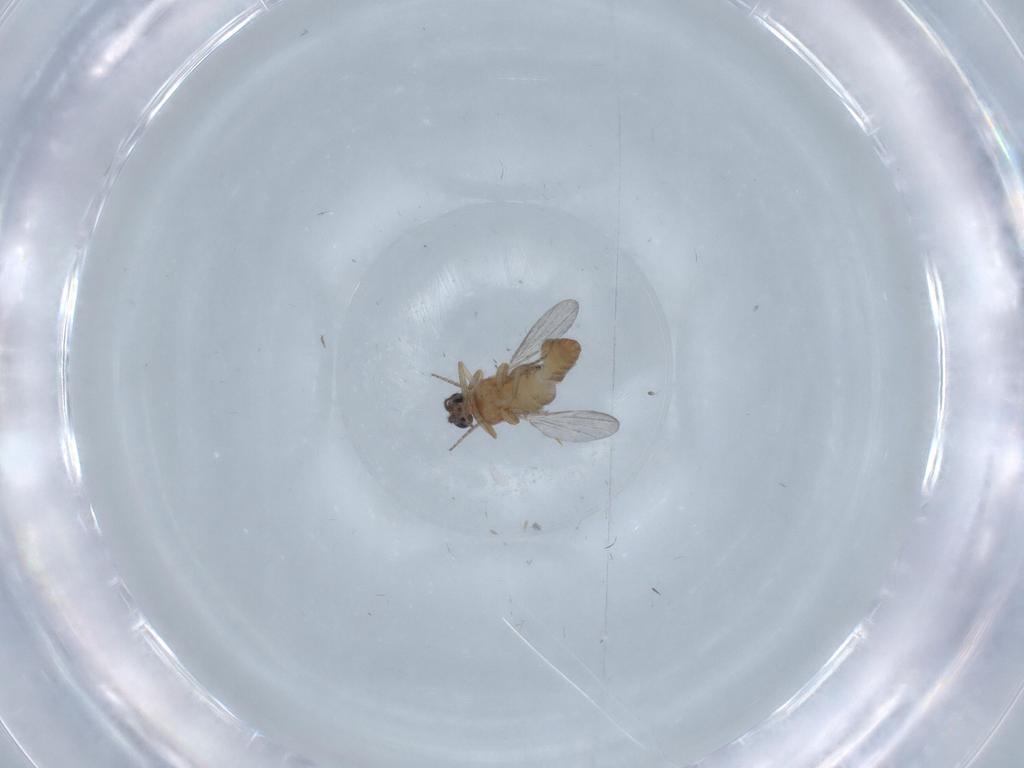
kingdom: Animalia
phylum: Arthropoda
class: Insecta
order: Diptera
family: Ceratopogonidae
